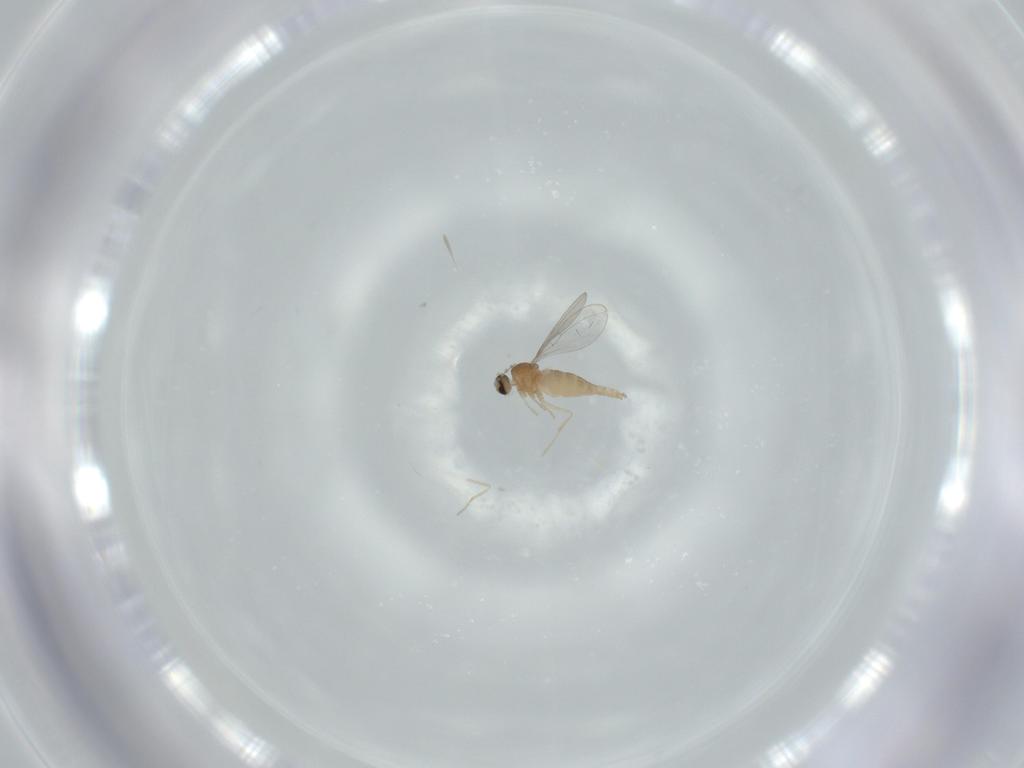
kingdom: Animalia
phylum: Arthropoda
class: Insecta
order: Diptera
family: Cecidomyiidae
